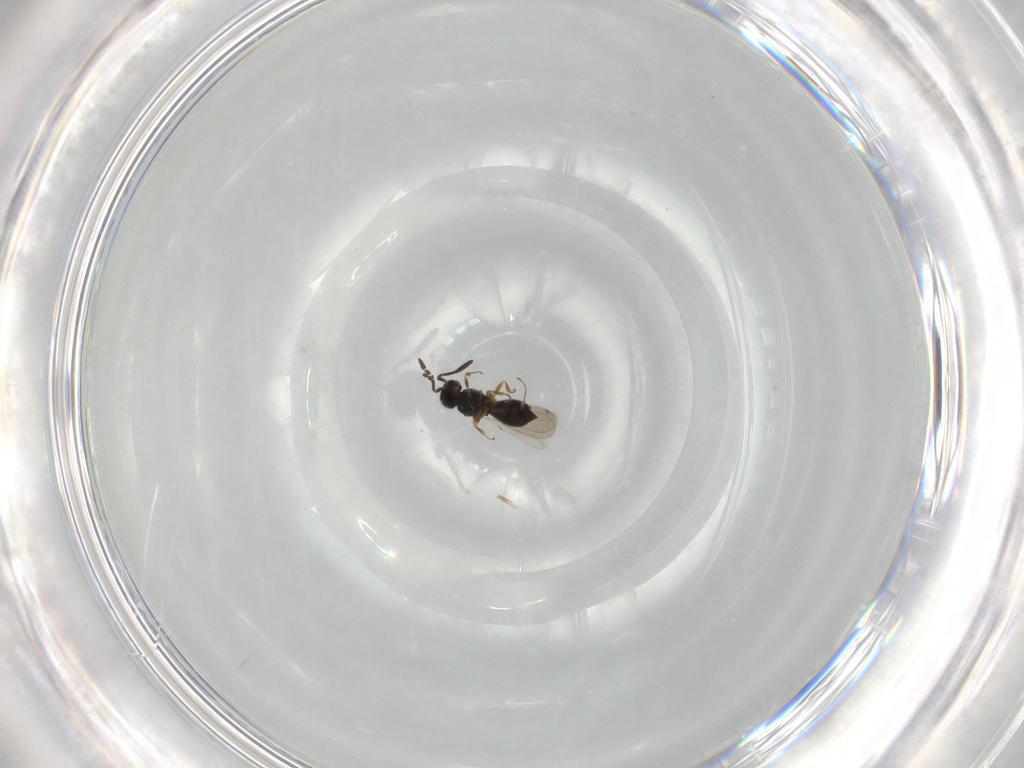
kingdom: Animalia
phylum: Arthropoda
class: Insecta
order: Hymenoptera
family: Scelionidae
